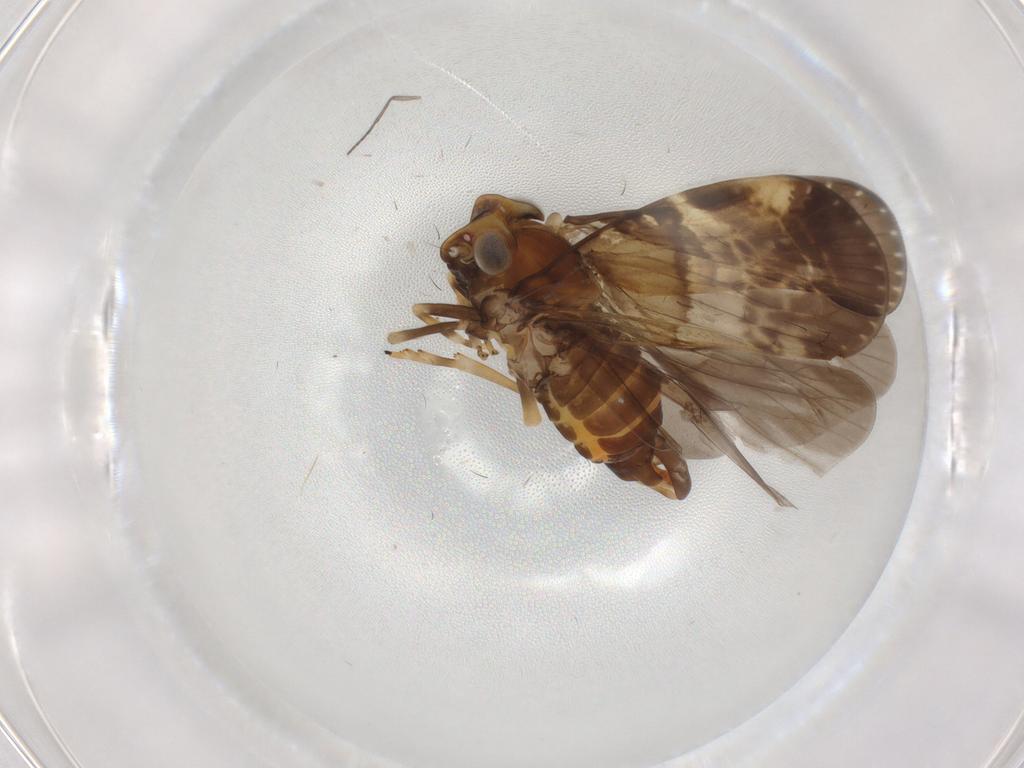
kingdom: Animalia
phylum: Arthropoda
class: Insecta
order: Hemiptera
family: Cixiidae
